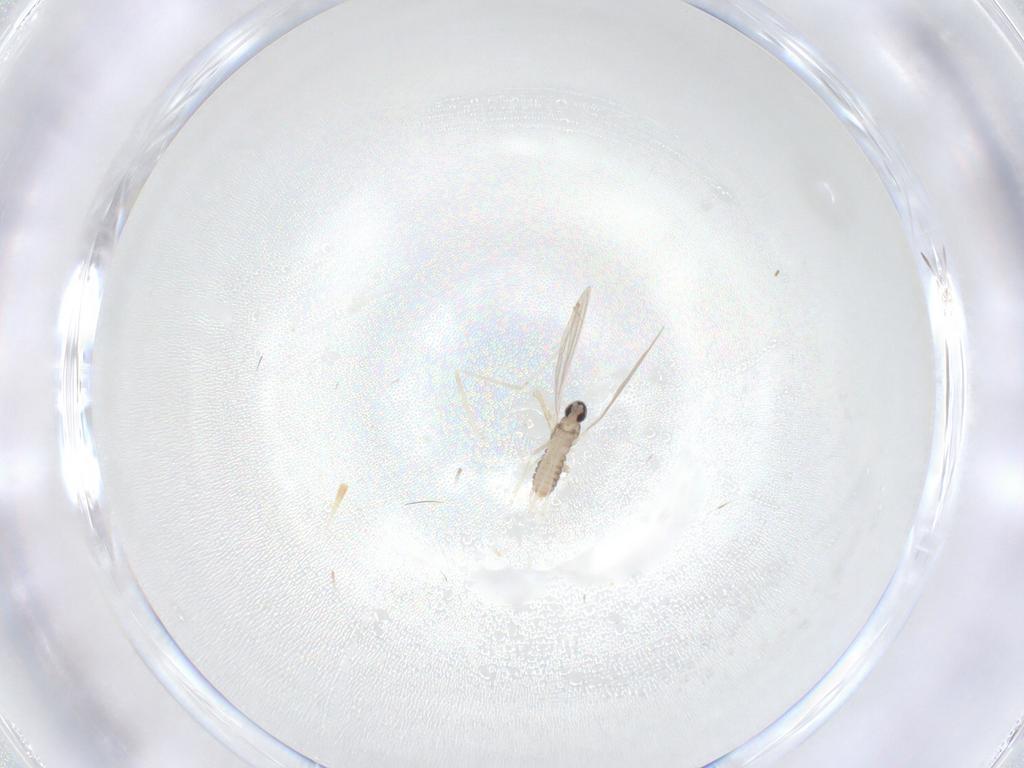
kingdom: Animalia
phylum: Arthropoda
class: Insecta
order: Diptera
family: Cecidomyiidae
